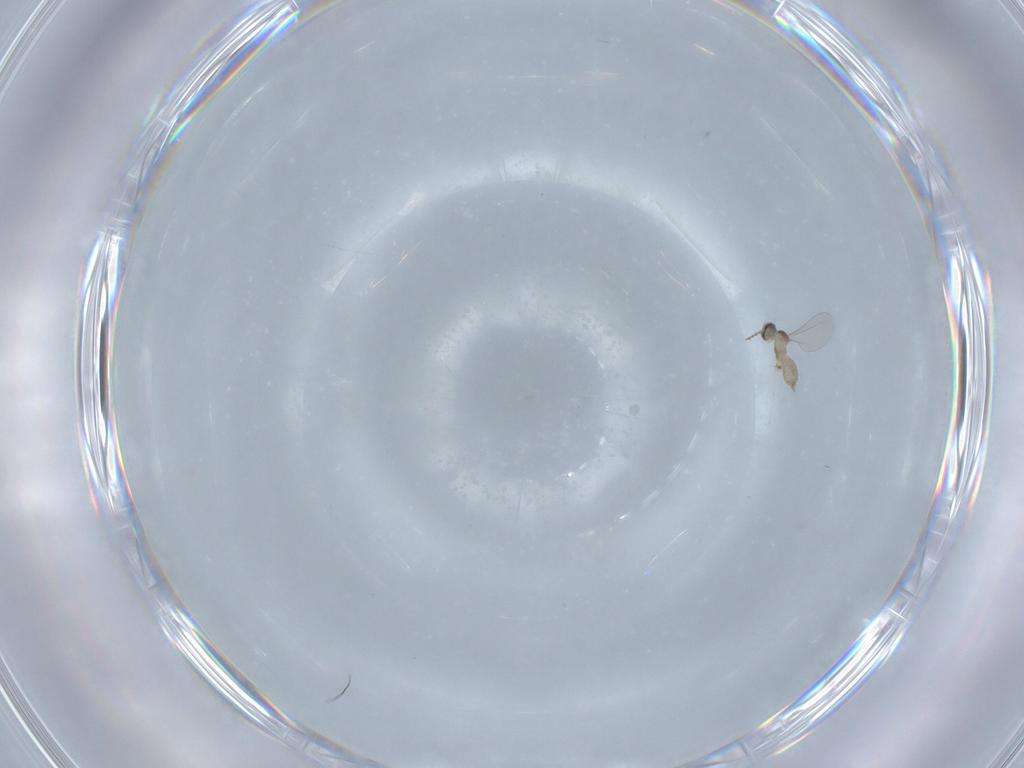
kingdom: Animalia
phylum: Arthropoda
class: Insecta
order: Diptera
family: Cecidomyiidae
